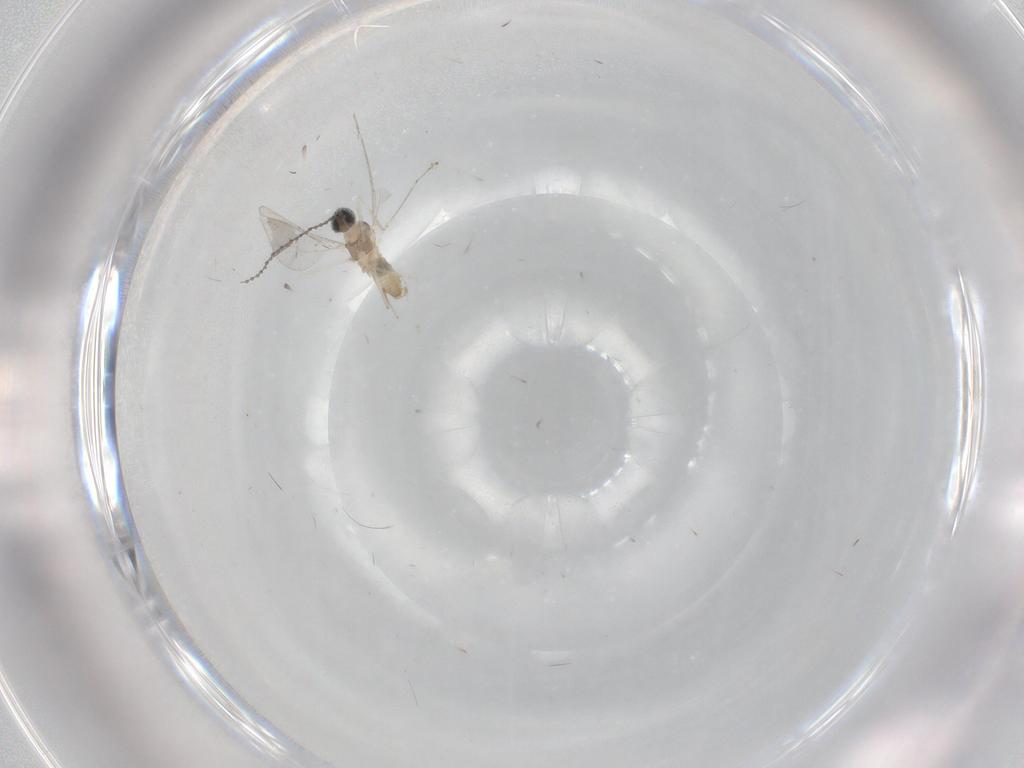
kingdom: Animalia
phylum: Arthropoda
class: Insecta
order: Diptera
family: Cecidomyiidae
